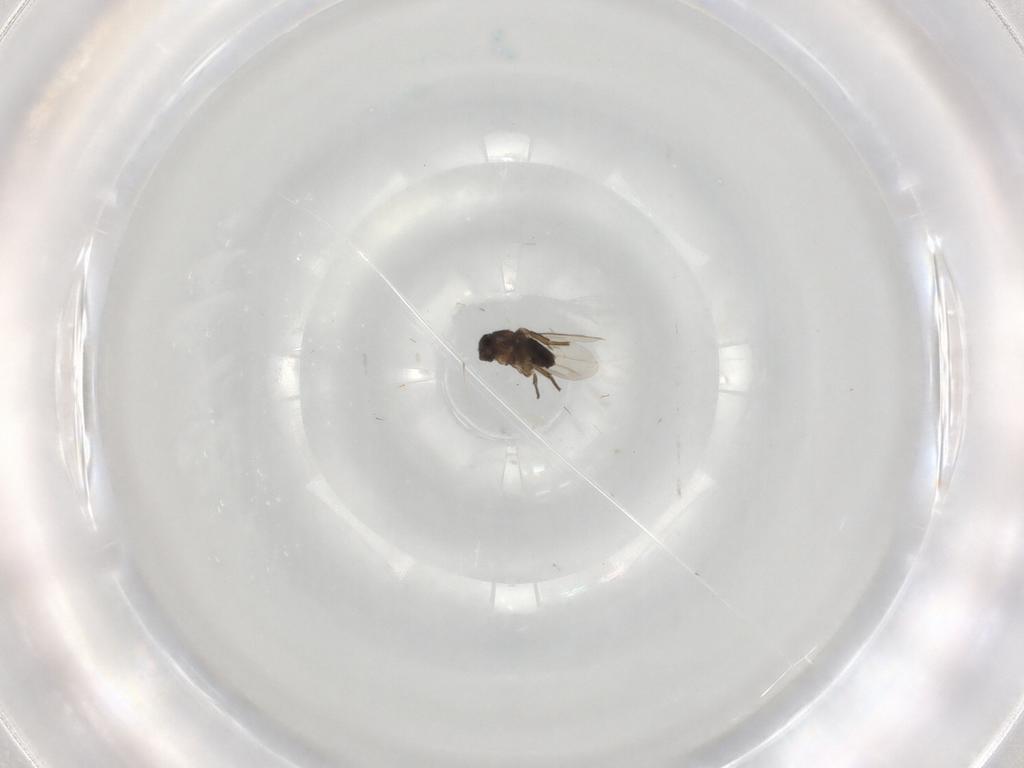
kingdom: Animalia
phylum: Arthropoda
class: Insecta
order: Diptera
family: Phoridae
